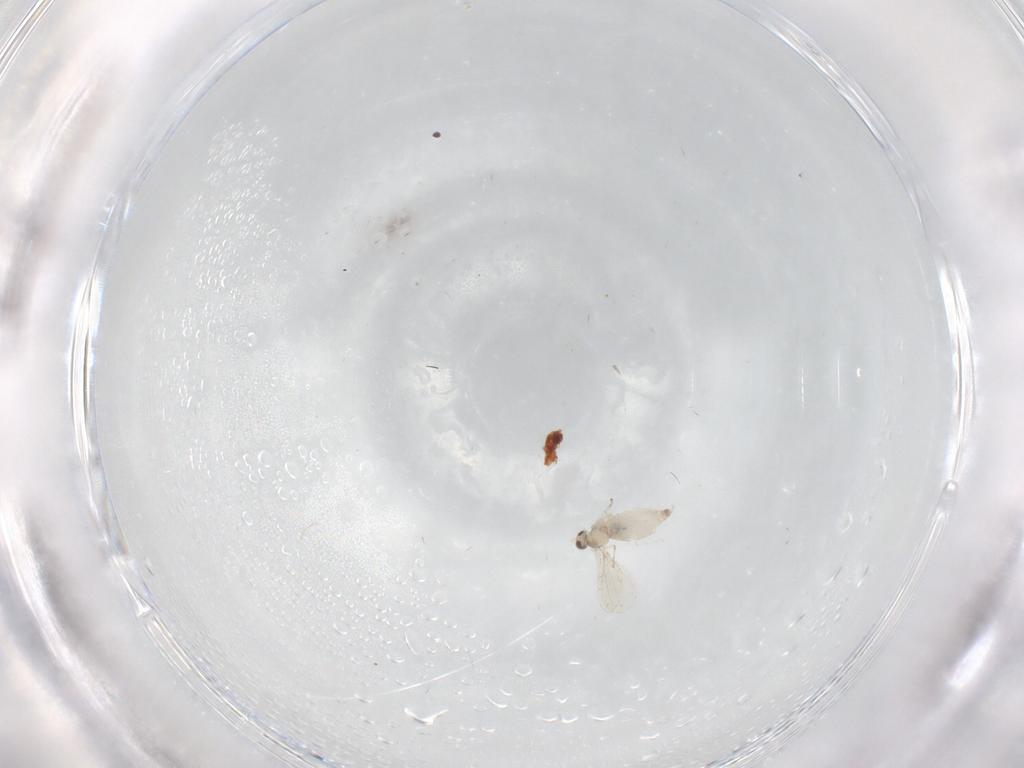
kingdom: Animalia
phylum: Arthropoda
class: Insecta
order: Diptera
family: Cecidomyiidae
